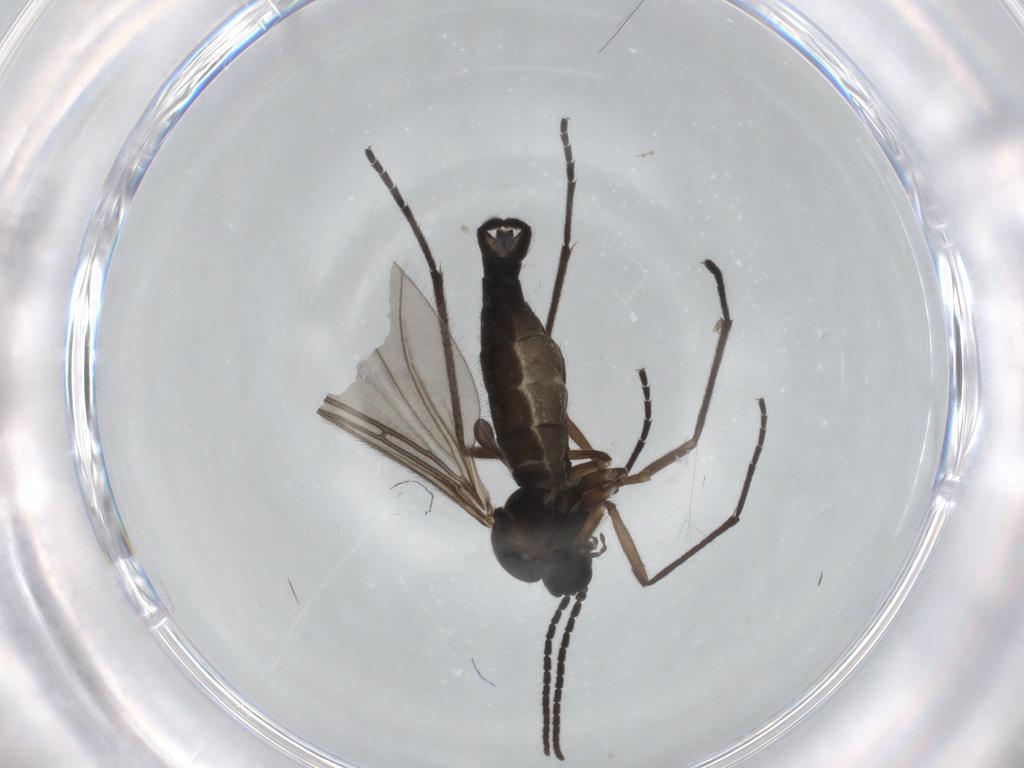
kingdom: Animalia
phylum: Arthropoda
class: Insecta
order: Diptera
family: Sciaridae
